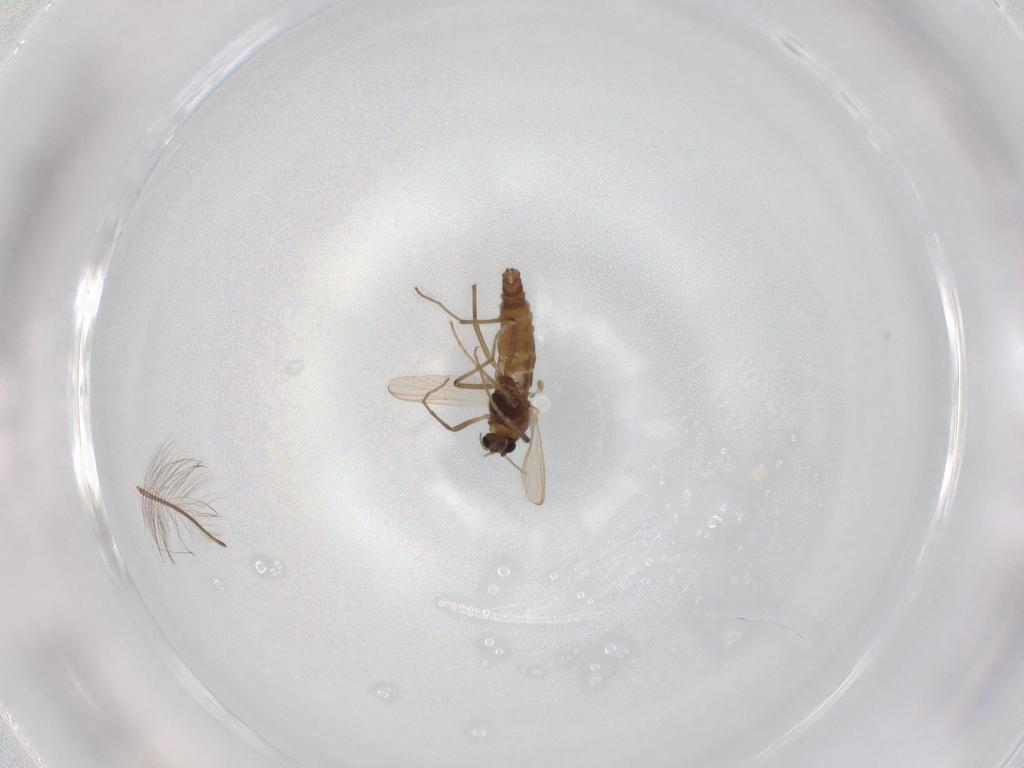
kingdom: Animalia
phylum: Arthropoda
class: Insecta
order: Diptera
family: Chironomidae
